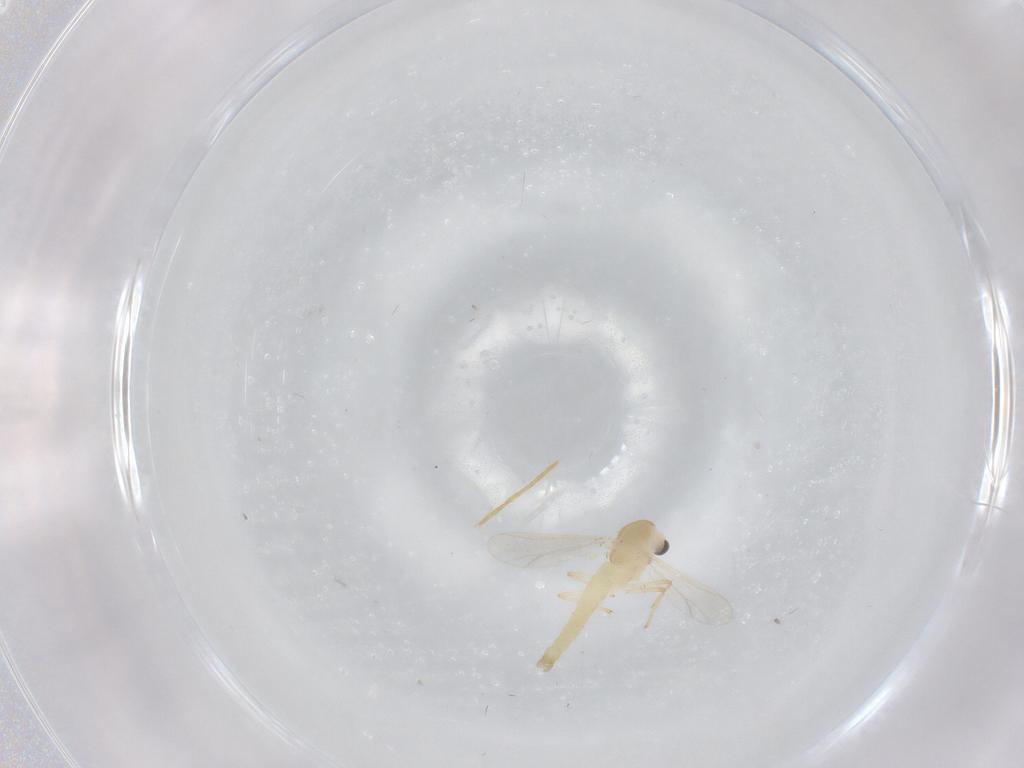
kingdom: Animalia
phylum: Arthropoda
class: Insecta
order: Diptera
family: Chironomidae
